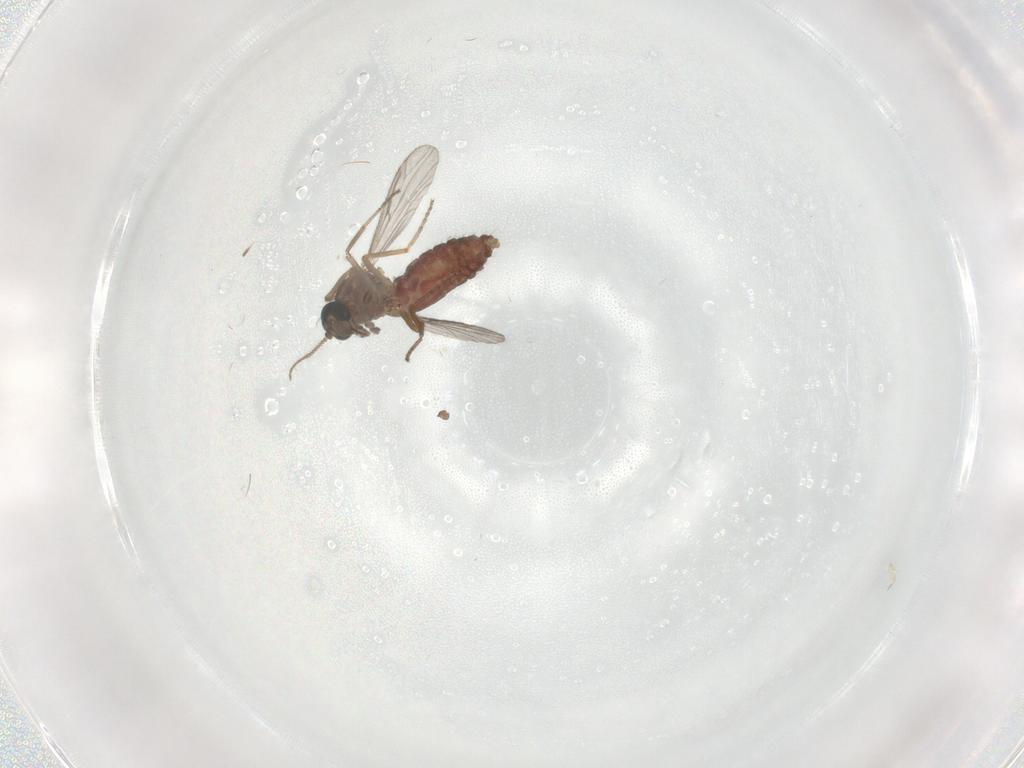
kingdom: Animalia
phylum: Arthropoda
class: Insecta
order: Diptera
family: Ceratopogonidae
